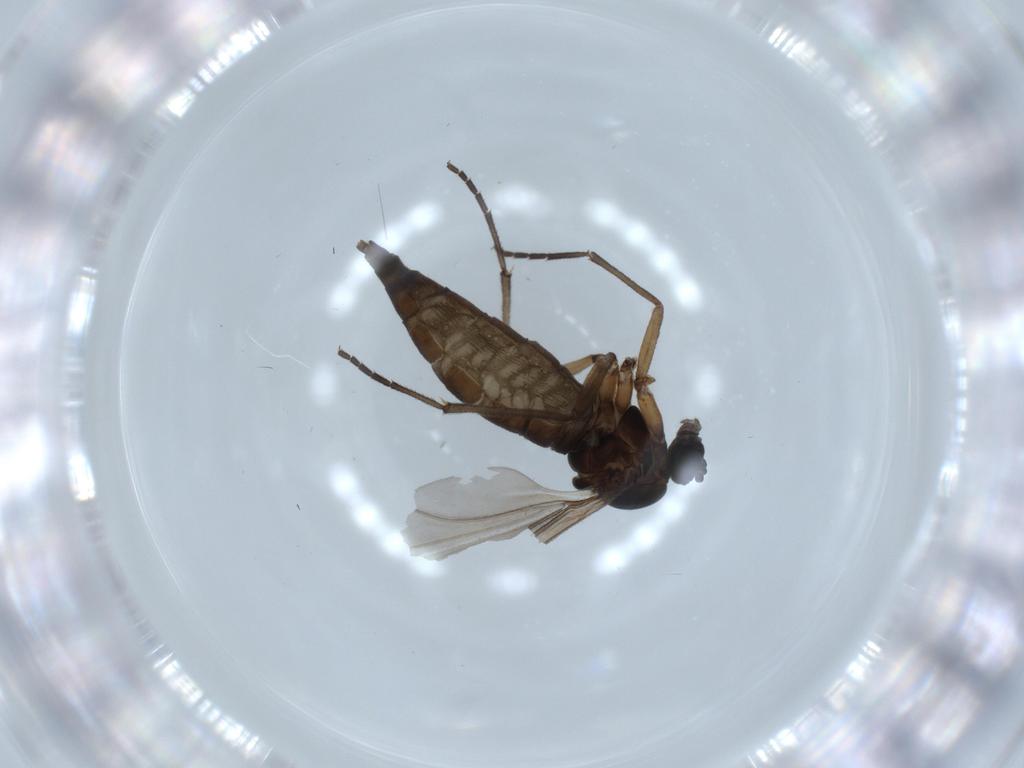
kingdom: Animalia
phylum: Arthropoda
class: Insecta
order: Diptera
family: Sciaridae
